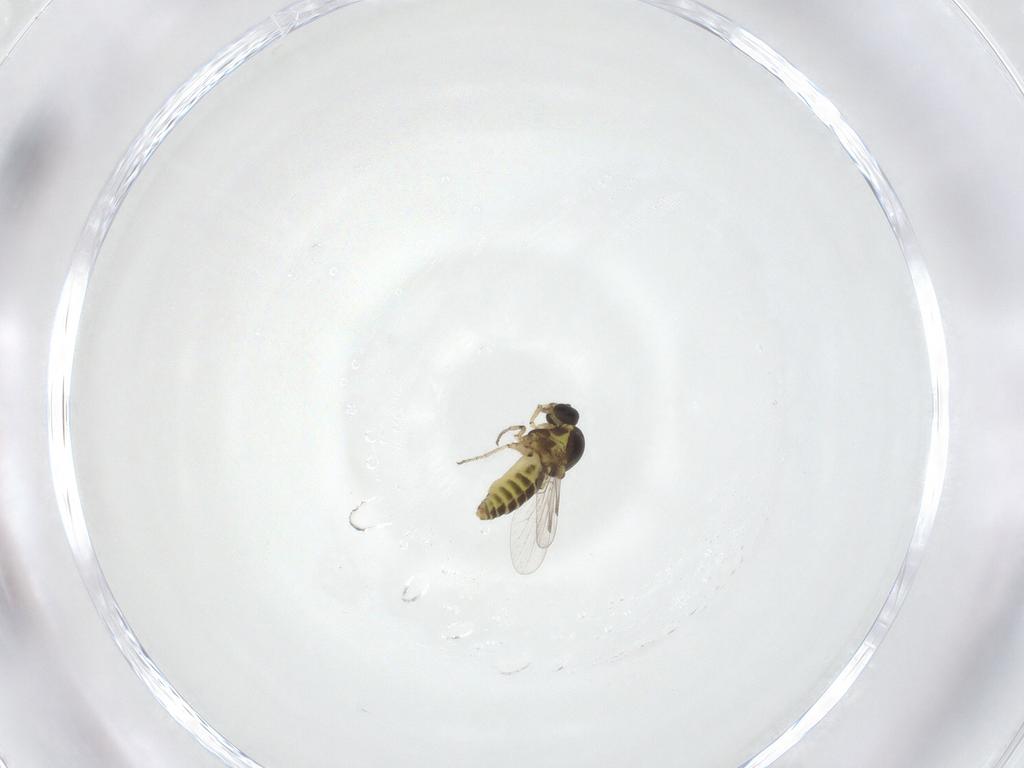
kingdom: Animalia
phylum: Arthropoda
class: Insecta
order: Diptera
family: Ceratopogonidae
